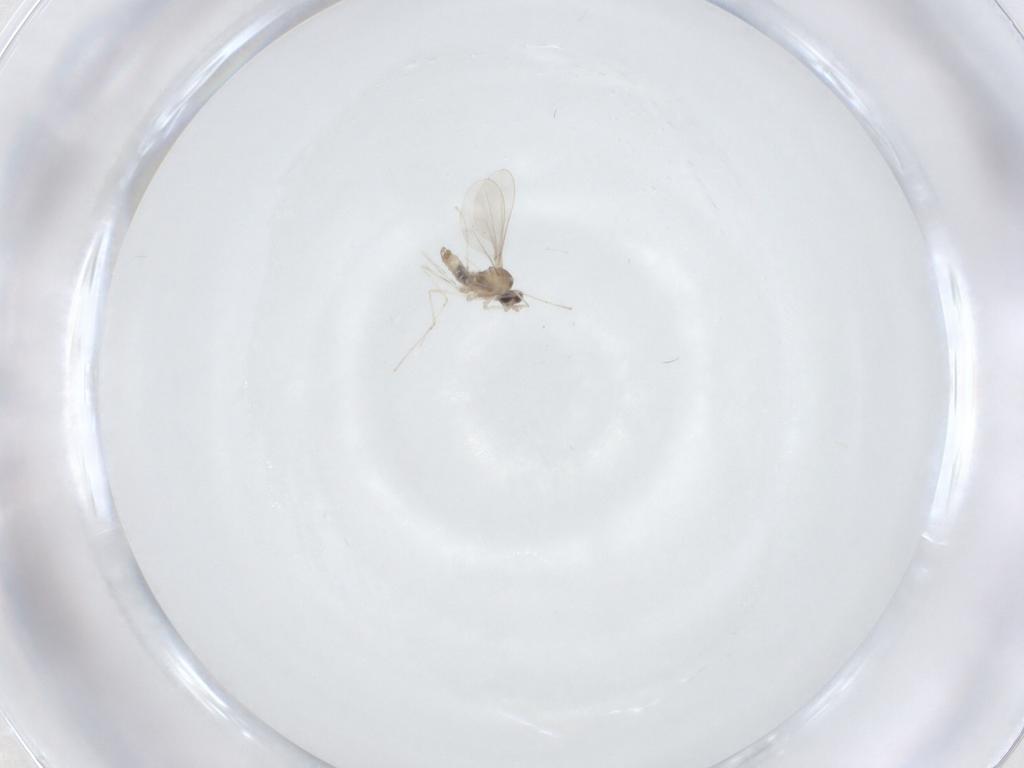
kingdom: Animalia
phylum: Arthropoda
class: Insecta
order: Diptera
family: Cecidomyiidae
